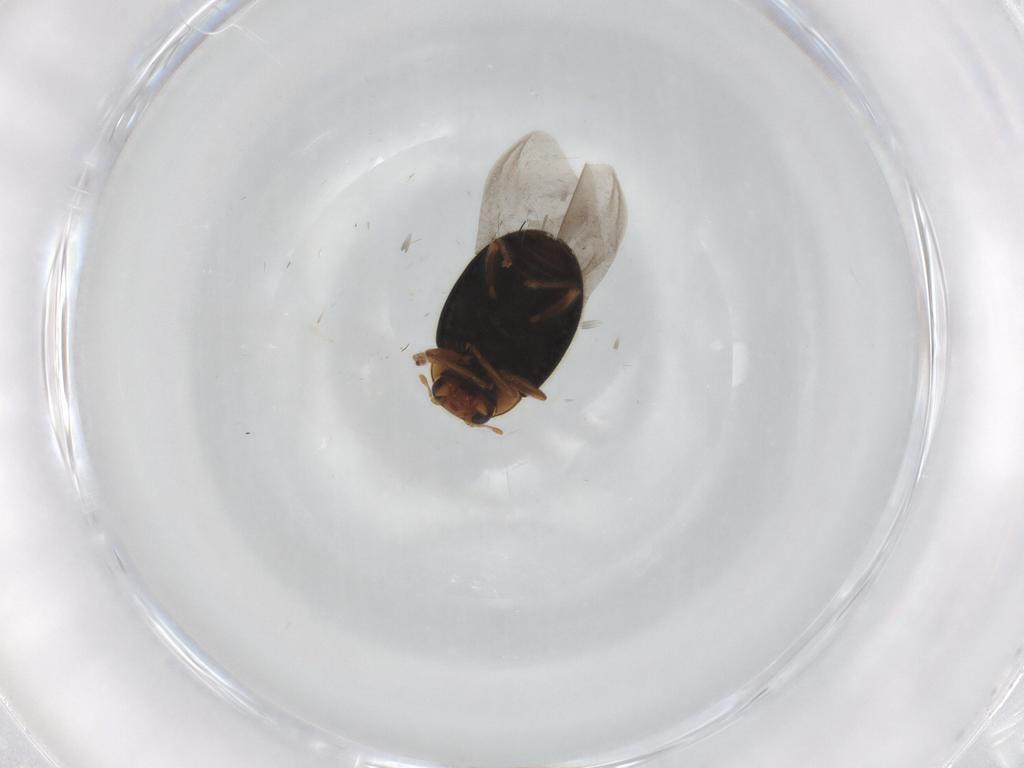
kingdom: Animalia
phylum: Arthropoda
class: Insecta
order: Coleoptera
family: Coccinellidae
